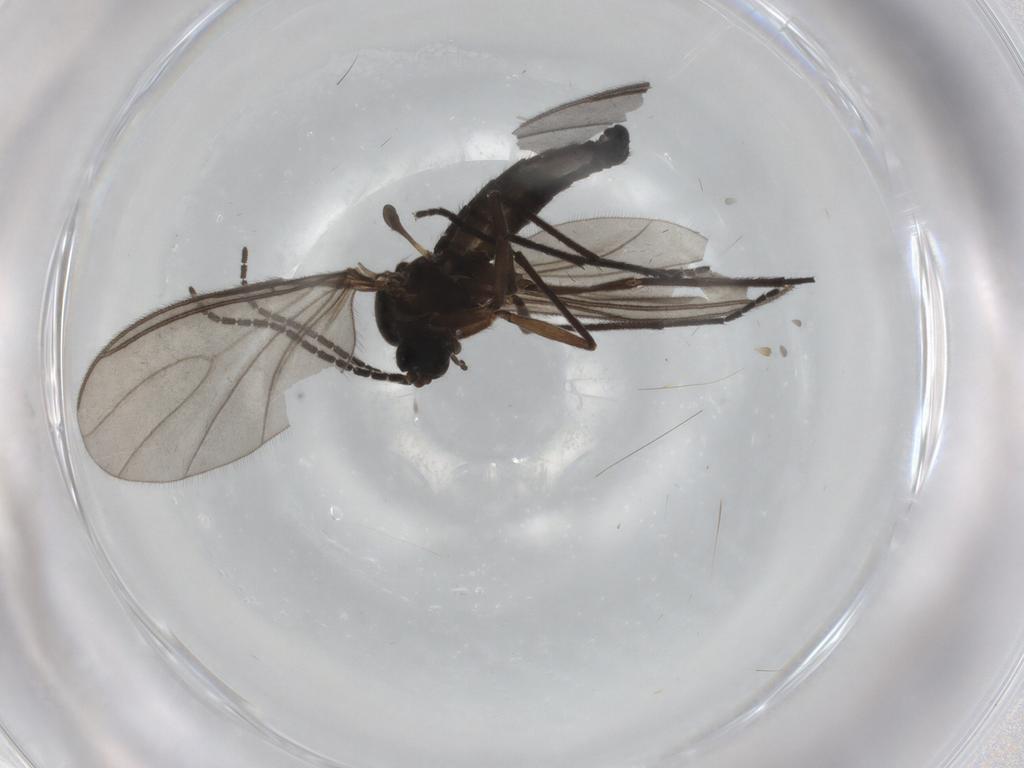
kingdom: Animalia
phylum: Arthropoda
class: Insecta
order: Diptera
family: Sciaridae
